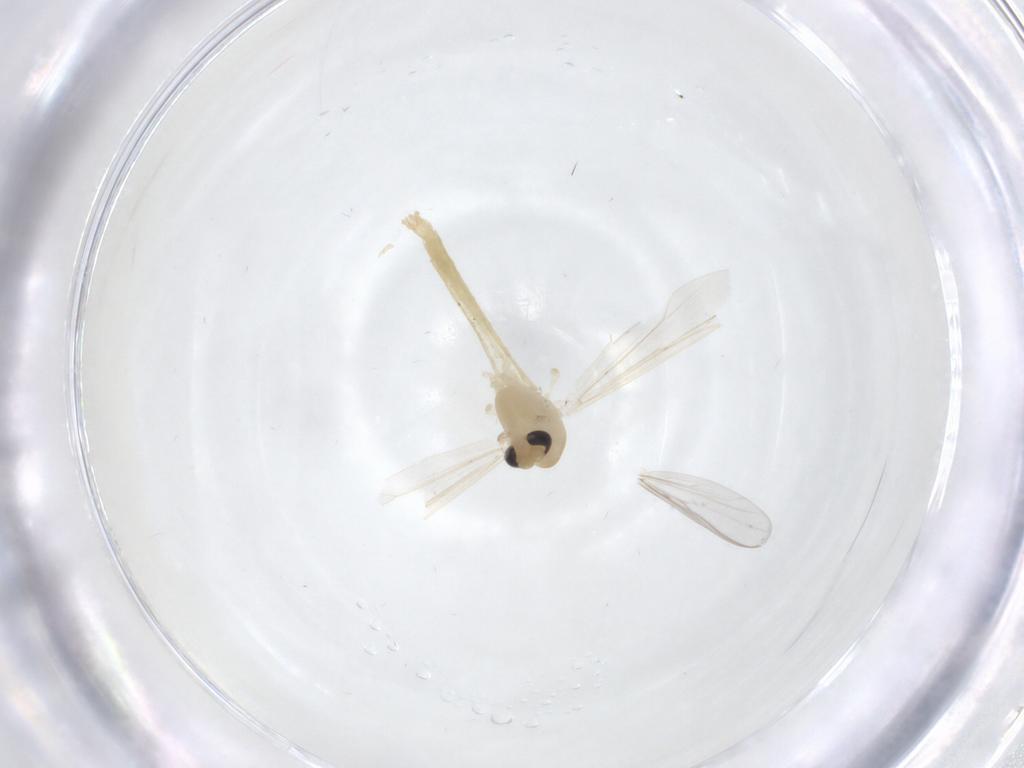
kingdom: Animalia
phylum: Arthropoda
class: Insecta
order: Diptera
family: Chironomidae
